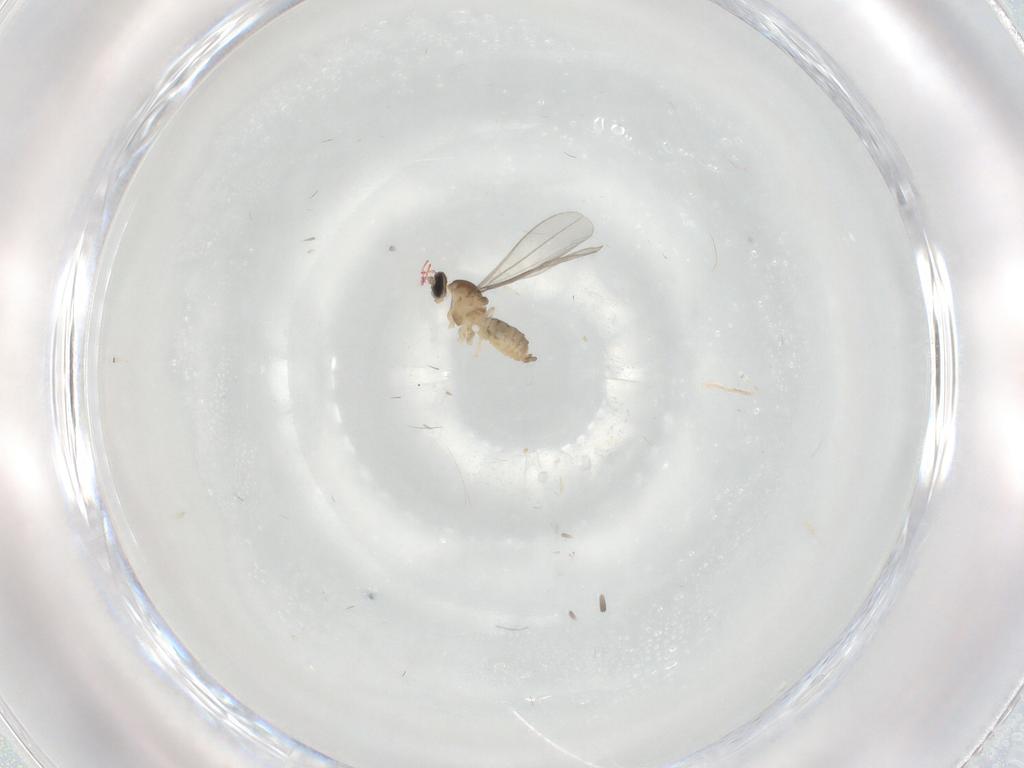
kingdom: Animalia
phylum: Arthropoda
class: Insecta
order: Diptera
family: Cecidomyiidae
